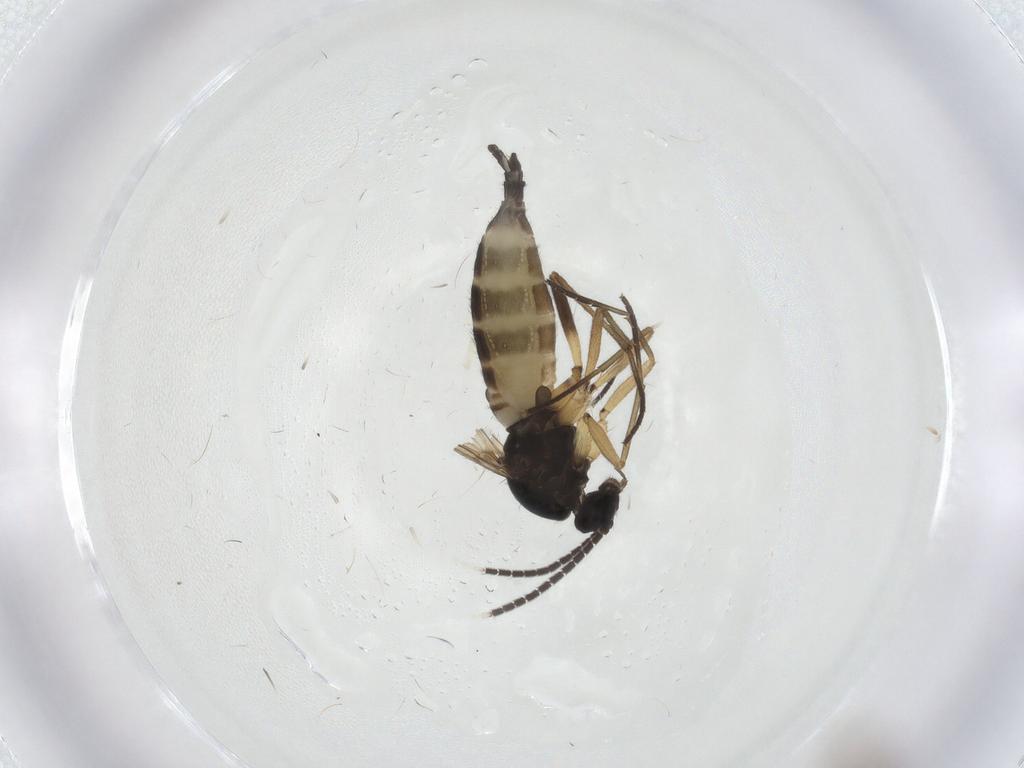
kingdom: Animalia
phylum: Arthropoda
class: Insecta
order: Diptera
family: Sciaridae
